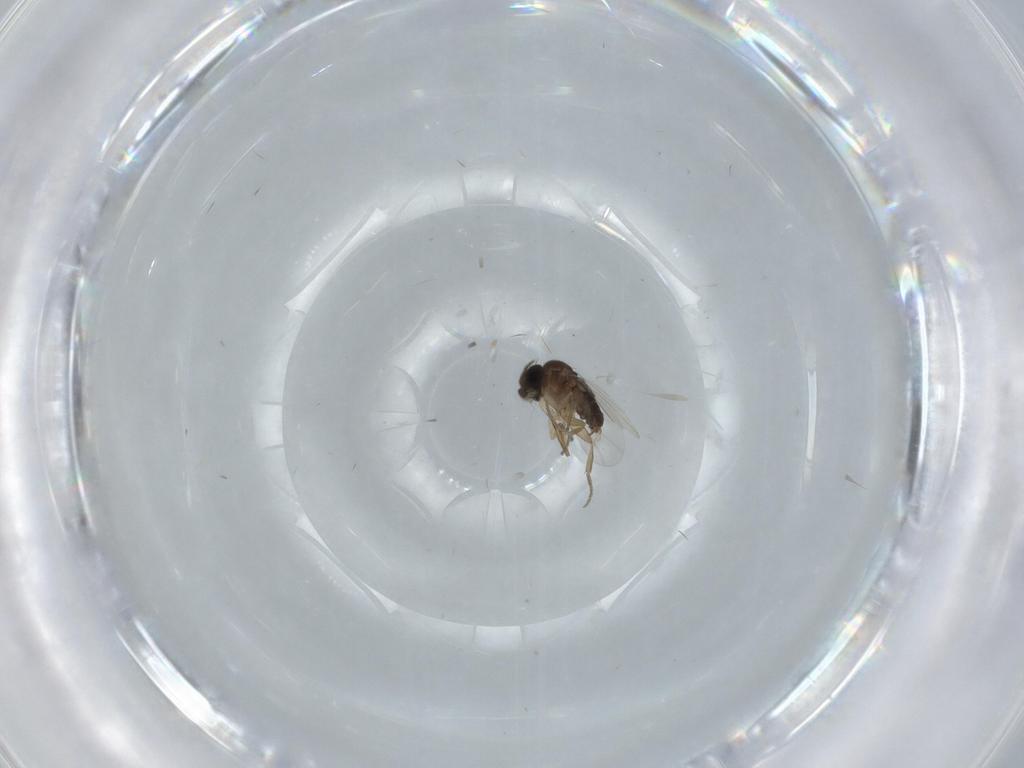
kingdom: Animalia
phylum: Arthropoda
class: Insecta
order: Diptera
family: Phoridae
